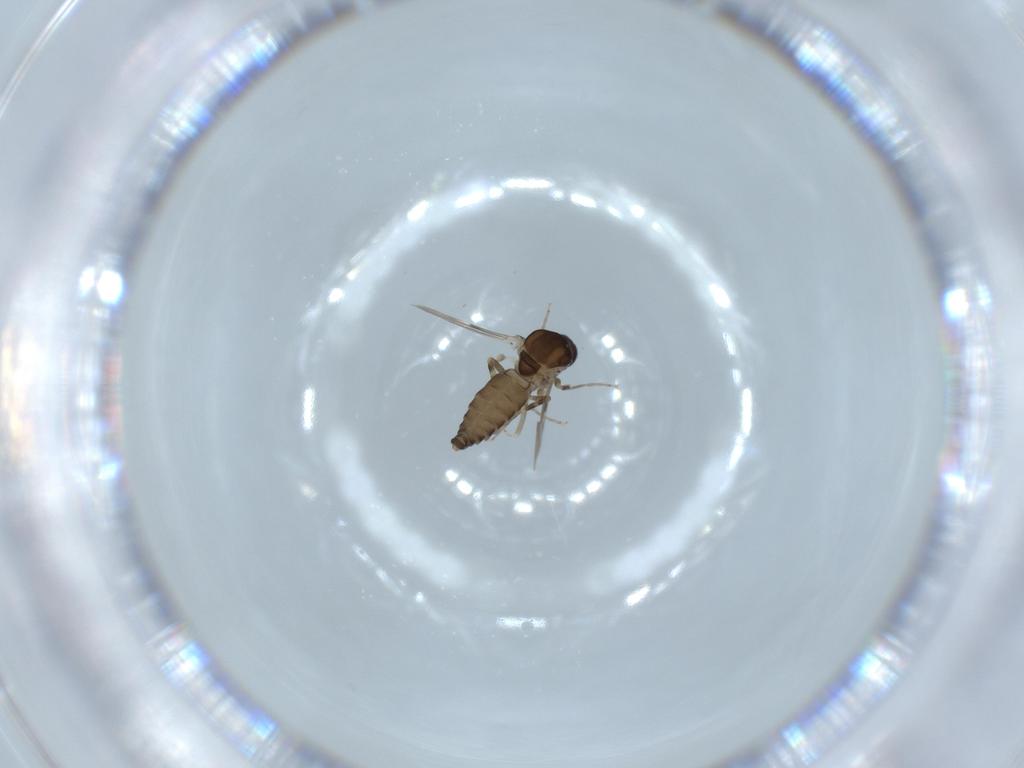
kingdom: Animalia
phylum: Arthropoda
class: Insecta
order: Diptera
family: Ceratopogonidae
